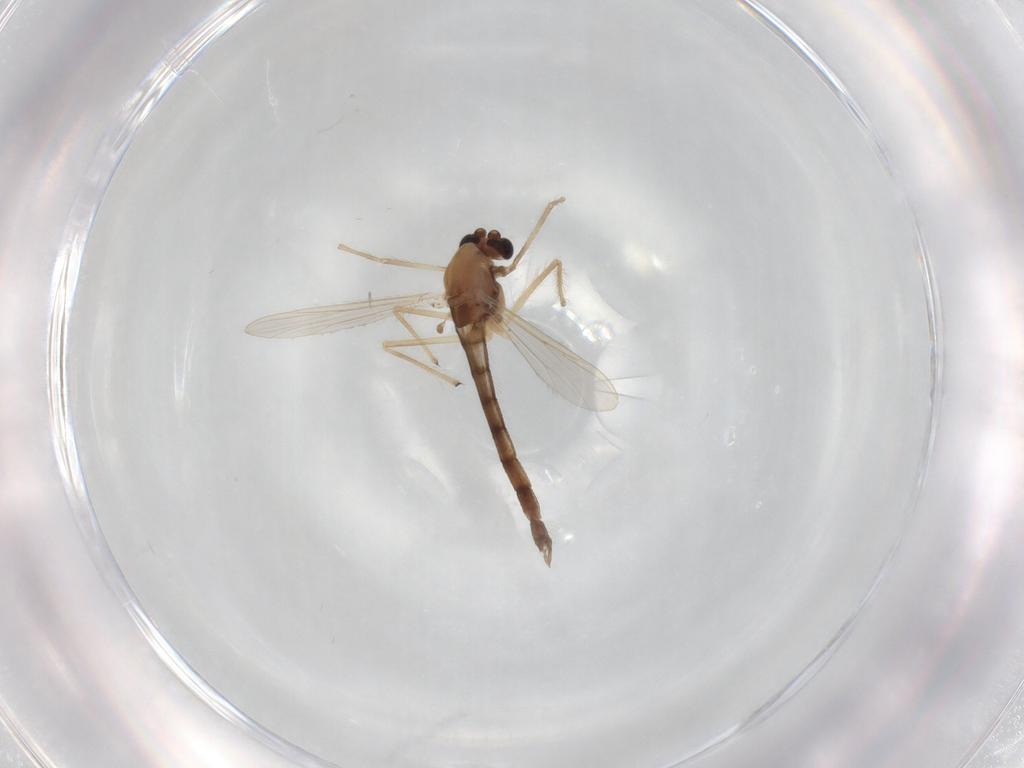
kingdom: Animalia
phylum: Arthropoda
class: Insecta
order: Diptera
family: Chironomidae
